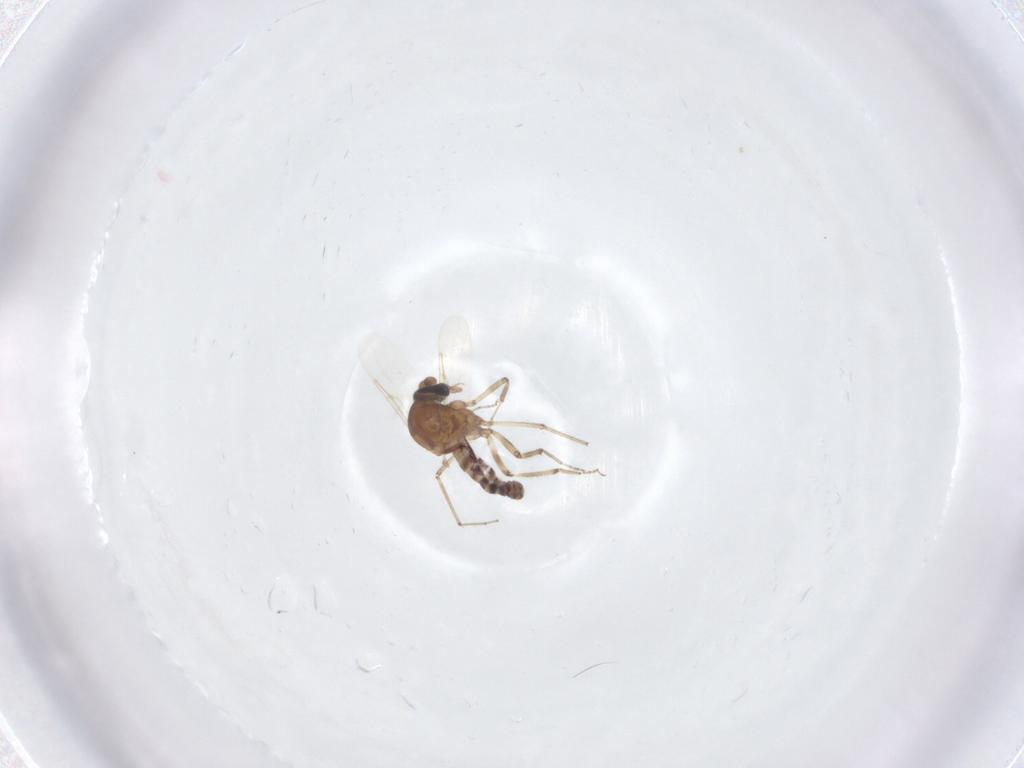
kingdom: Animalia
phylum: Arthropoda
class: Insecta
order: Diptera
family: Ceratopogonidae
